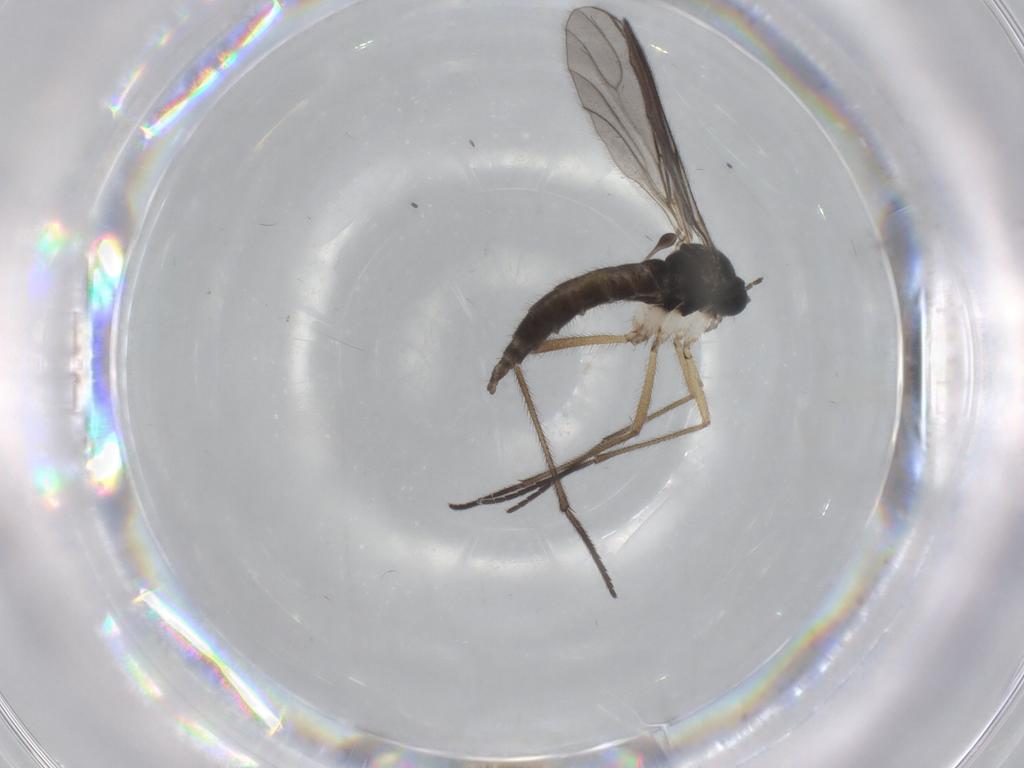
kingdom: Animalia
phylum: Arthropoda
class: Insecta
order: Diptera
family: Sciaridae
